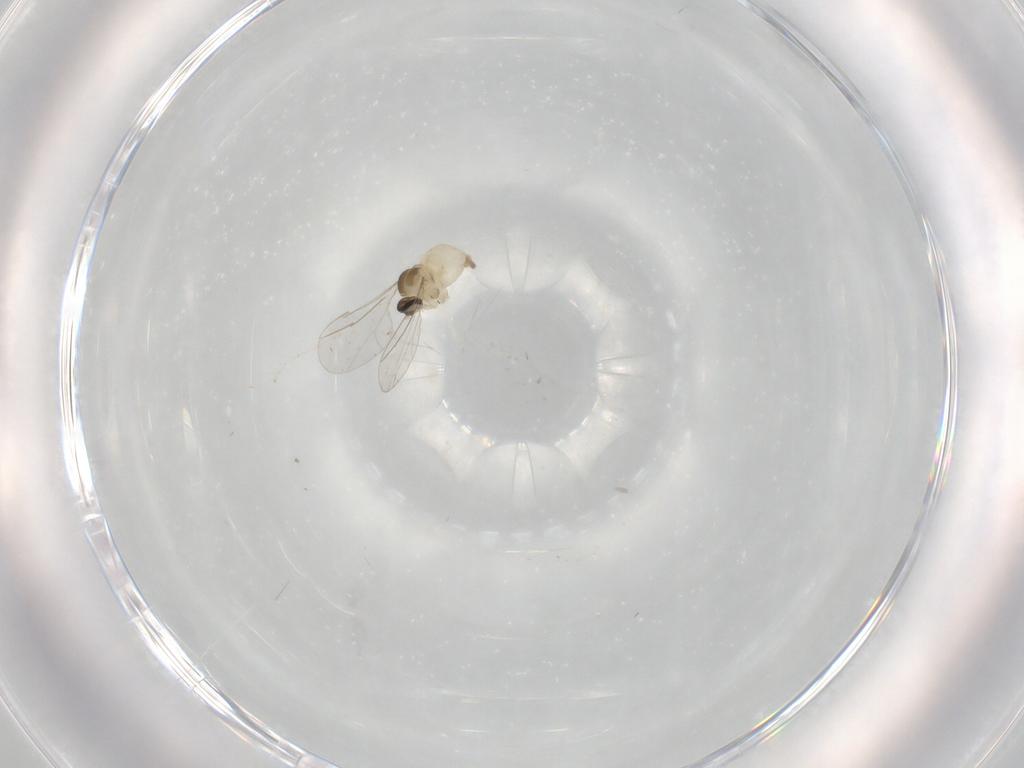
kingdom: Animalia
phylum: Arthropoda
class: Insecta
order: Diptera
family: Cecidomyiidae
